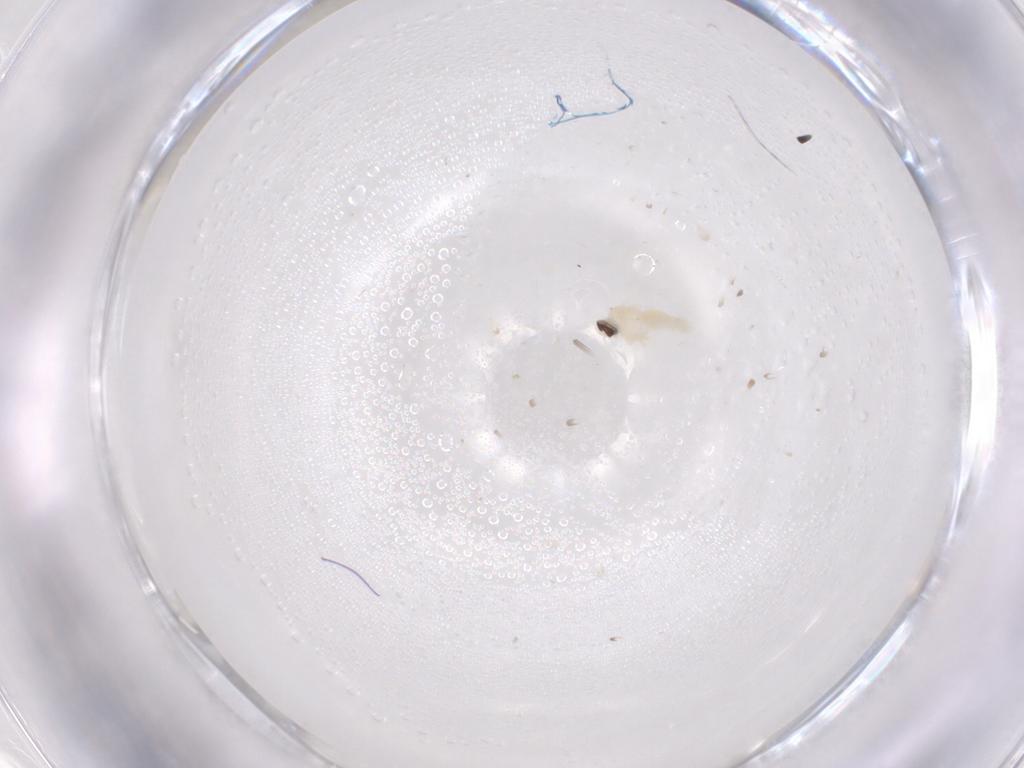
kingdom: Animalia
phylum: Arthropoda
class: Insecta
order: Diptera
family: Cecidomyiidae
